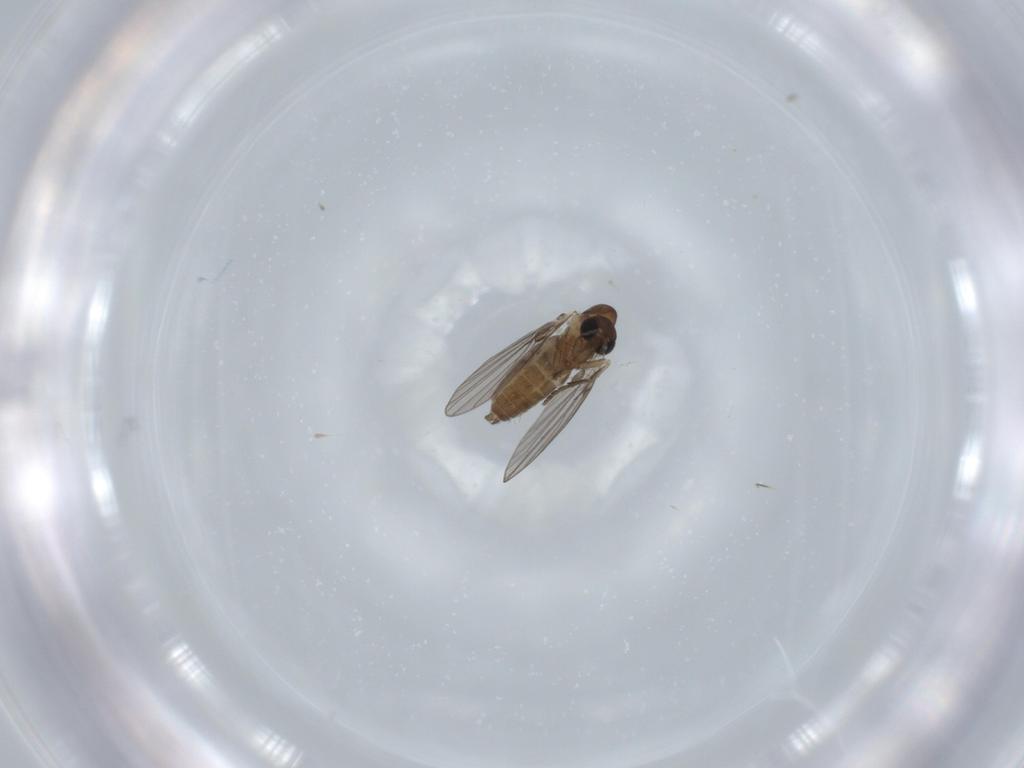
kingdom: Animalia
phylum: Arthropoda
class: Insecta
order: Diptera
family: Psychodidae
